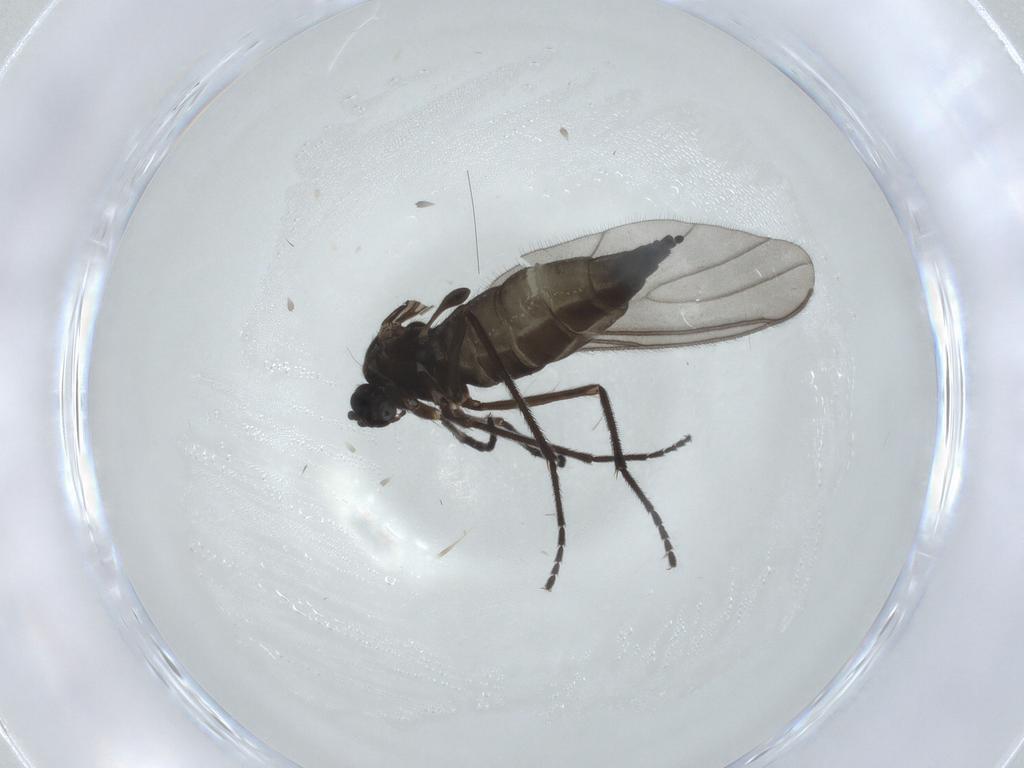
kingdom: Animalia
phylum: Arthropoda
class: Insecta
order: Diptera
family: Sciaridae
